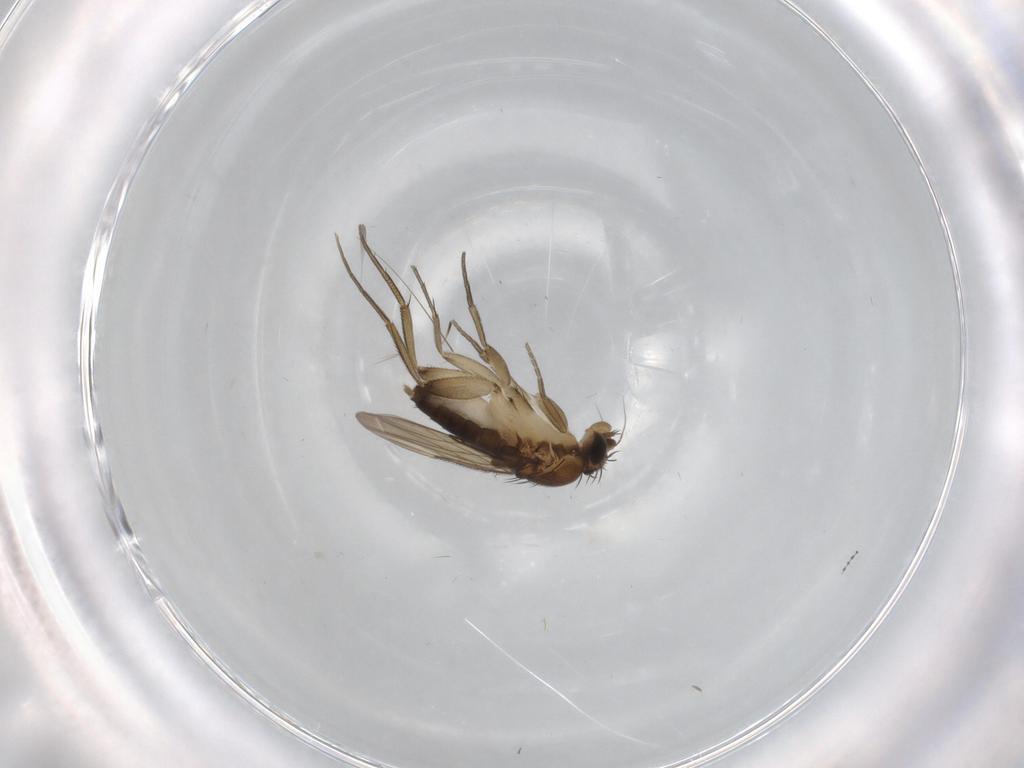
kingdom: Animalia
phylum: Arthropoda
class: Insecta
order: Diptera
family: Phoridae
